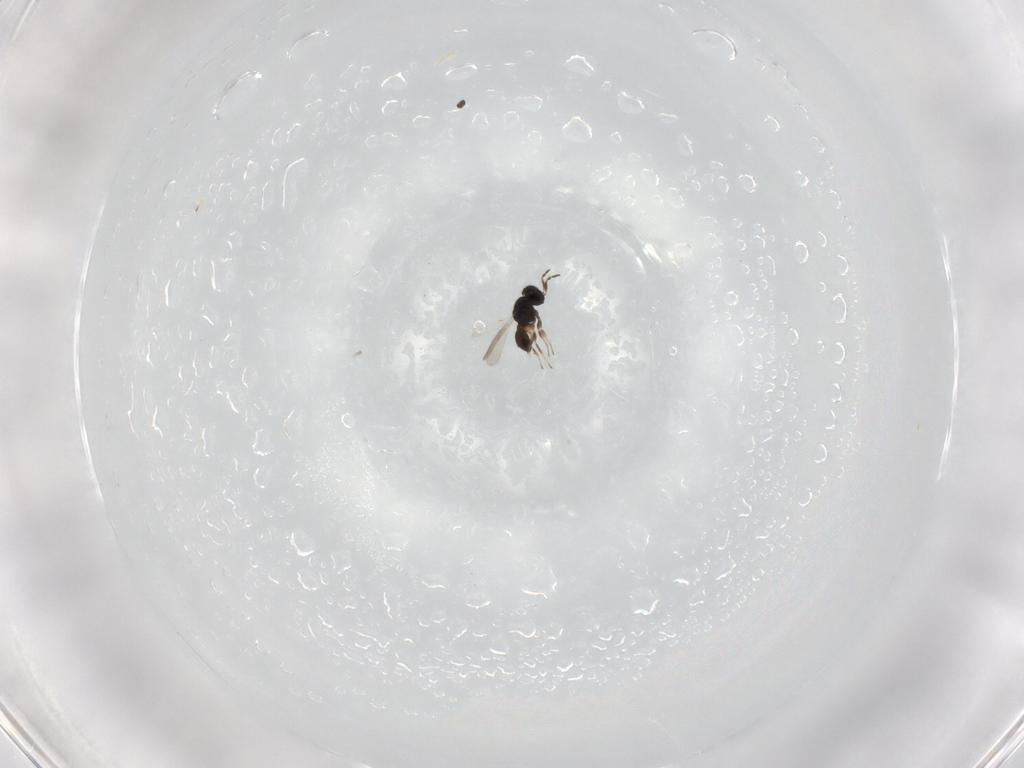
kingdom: Animalia
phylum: Arthropoda
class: Insecta
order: Hymenoptera
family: Scelionidae
